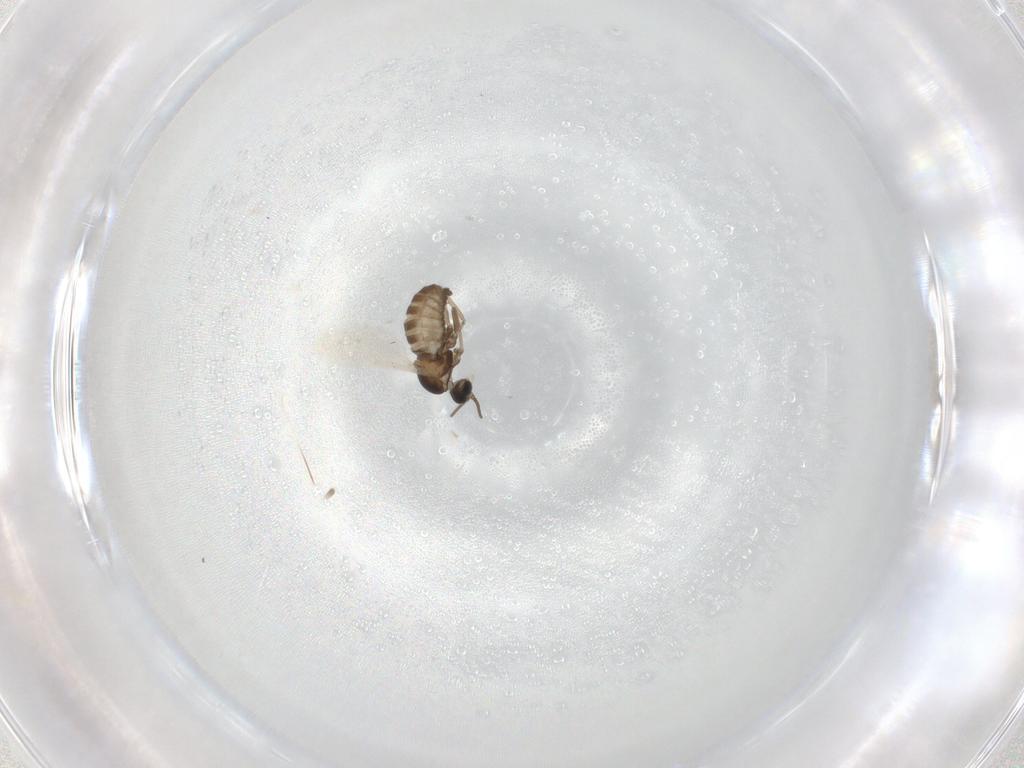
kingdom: Animalia
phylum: Arthropoda
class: Insecta
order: Diptera
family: Cecidomyiidae
